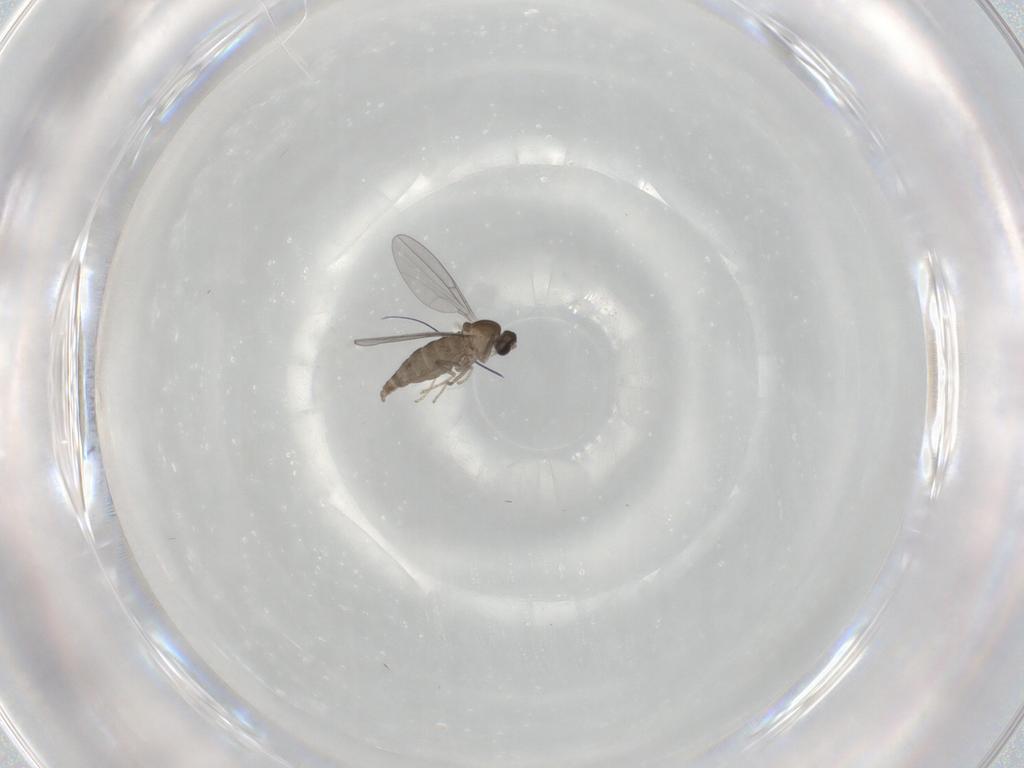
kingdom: Animalia
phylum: Arthropoda
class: Insecta
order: Diptera
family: Cecidomyiidae
